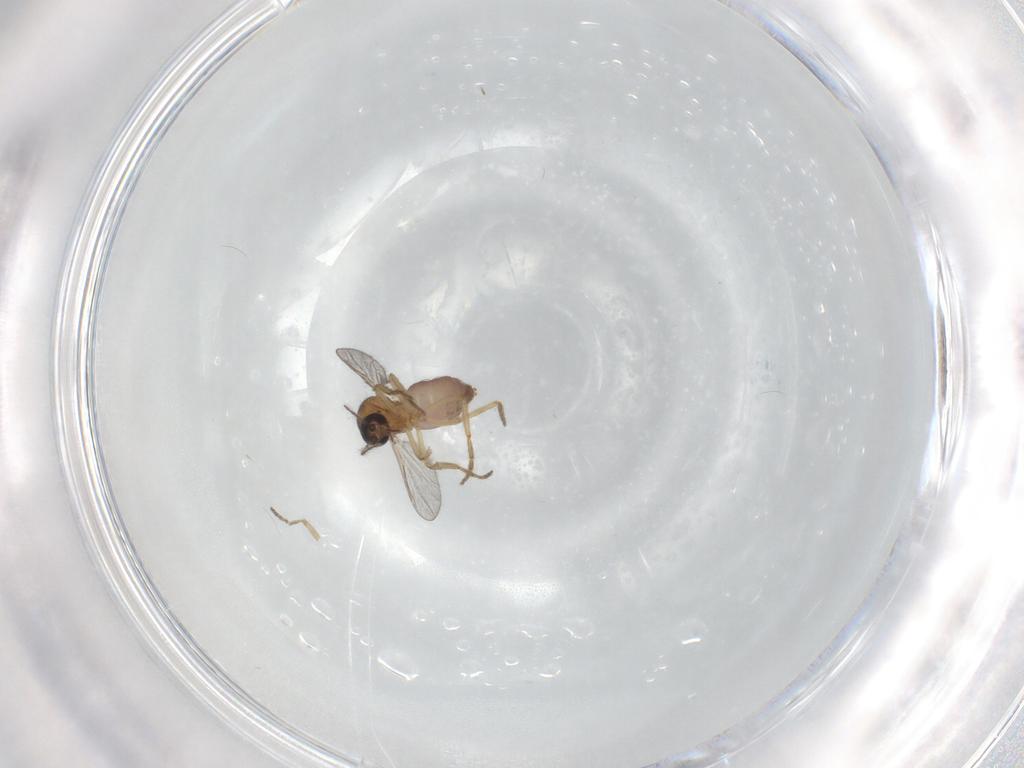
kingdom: Animalia
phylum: Arthropoda
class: Insecta
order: Diptera
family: Ceratopogonidae
